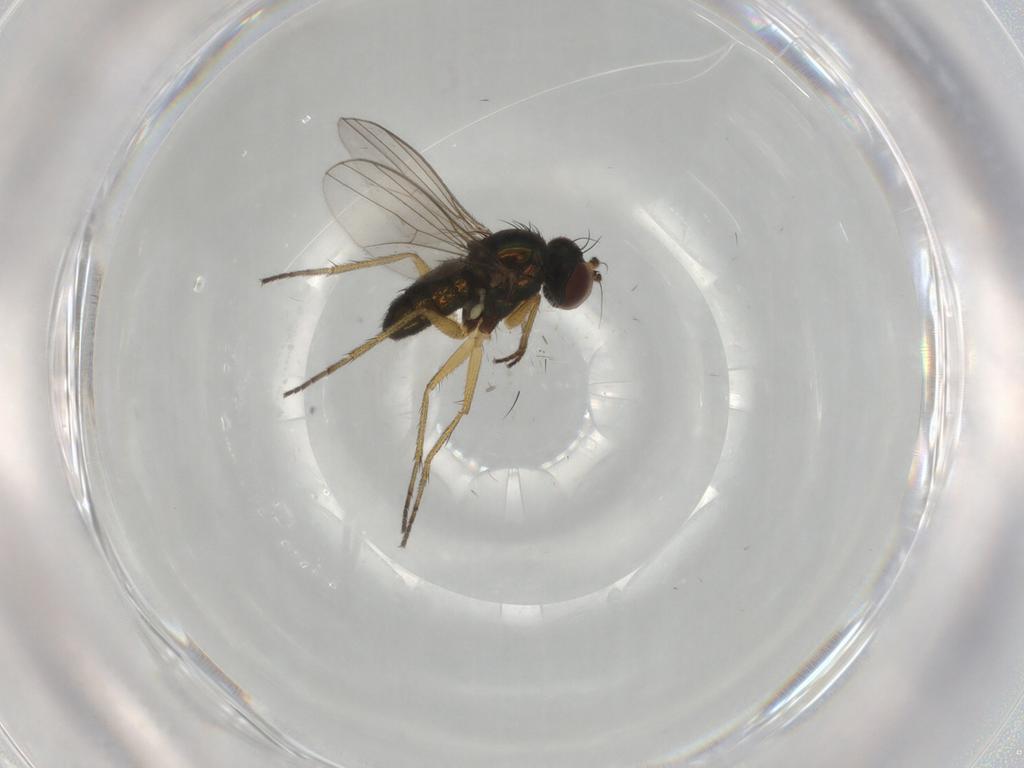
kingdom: Animalia
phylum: Arthropoda
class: Insecta
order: Diptera
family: Dolichopodidae
